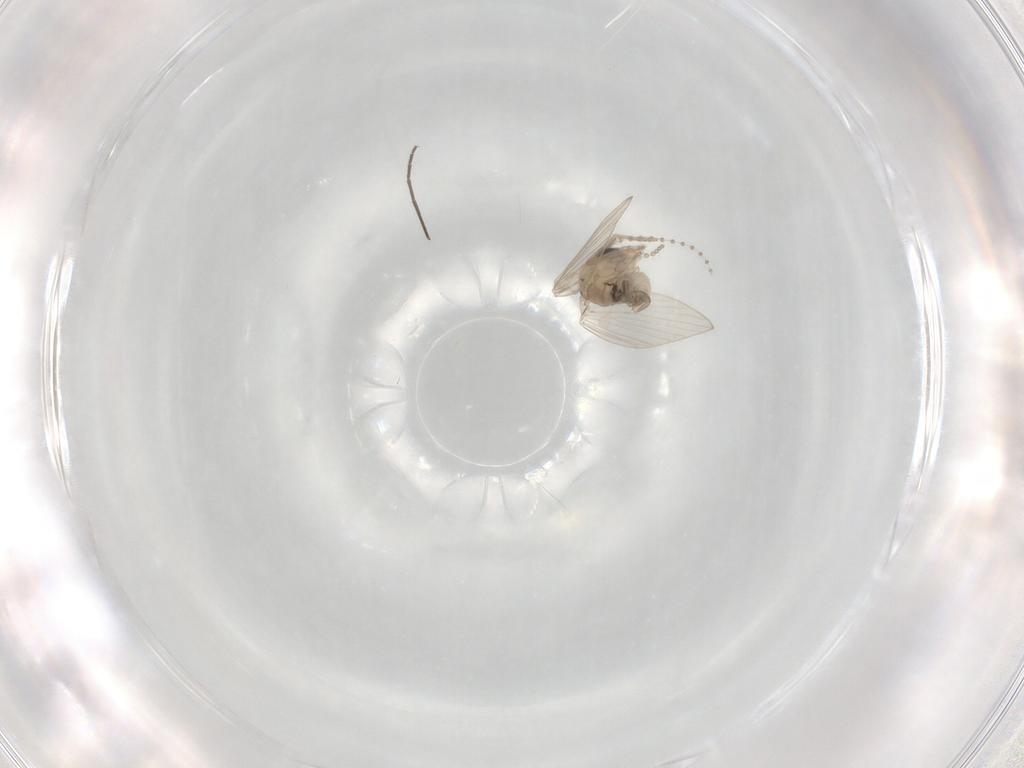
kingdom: Animalia
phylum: Arthropoda
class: Insecta
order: Diptera
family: Psychodidae
